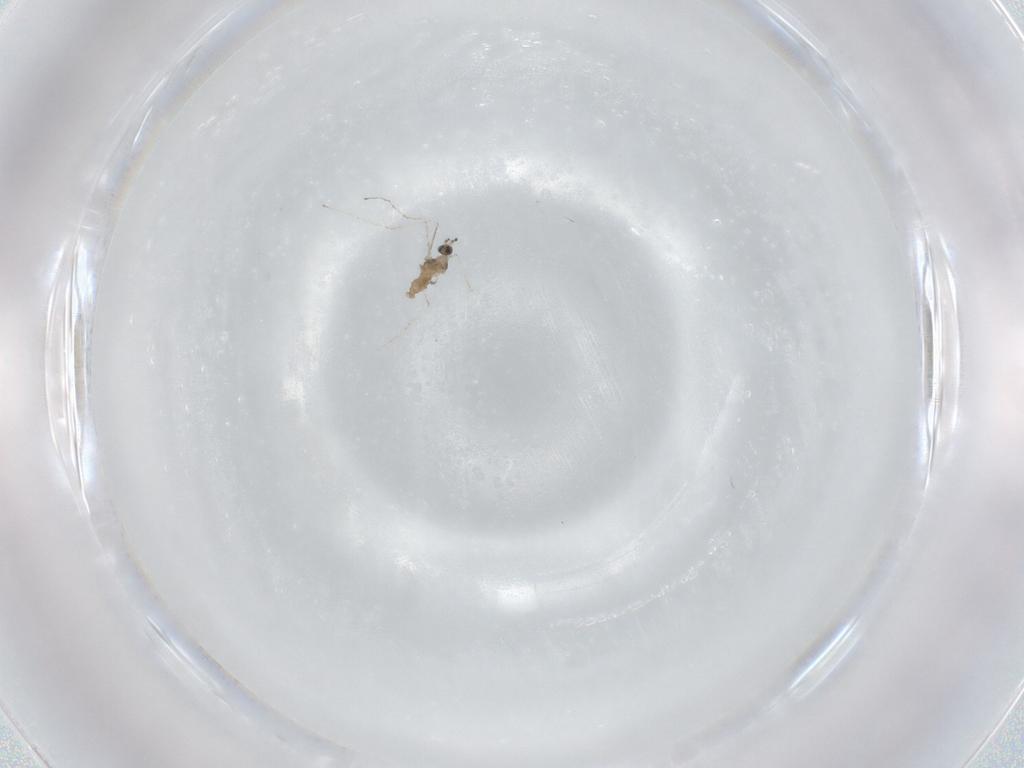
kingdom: Animalia
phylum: Arthropoda
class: Insecta
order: Diptera
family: Cecidomyiidae
